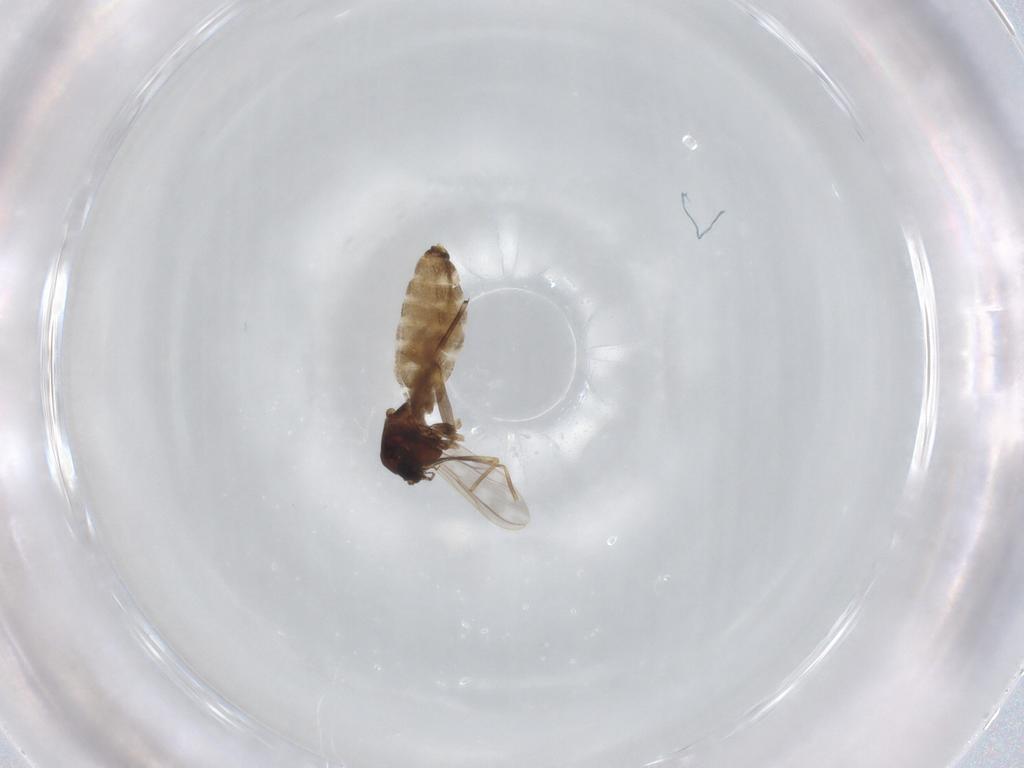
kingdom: Animalia
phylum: Arthropoda
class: Insecta
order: Diptera
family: Chironomidae
